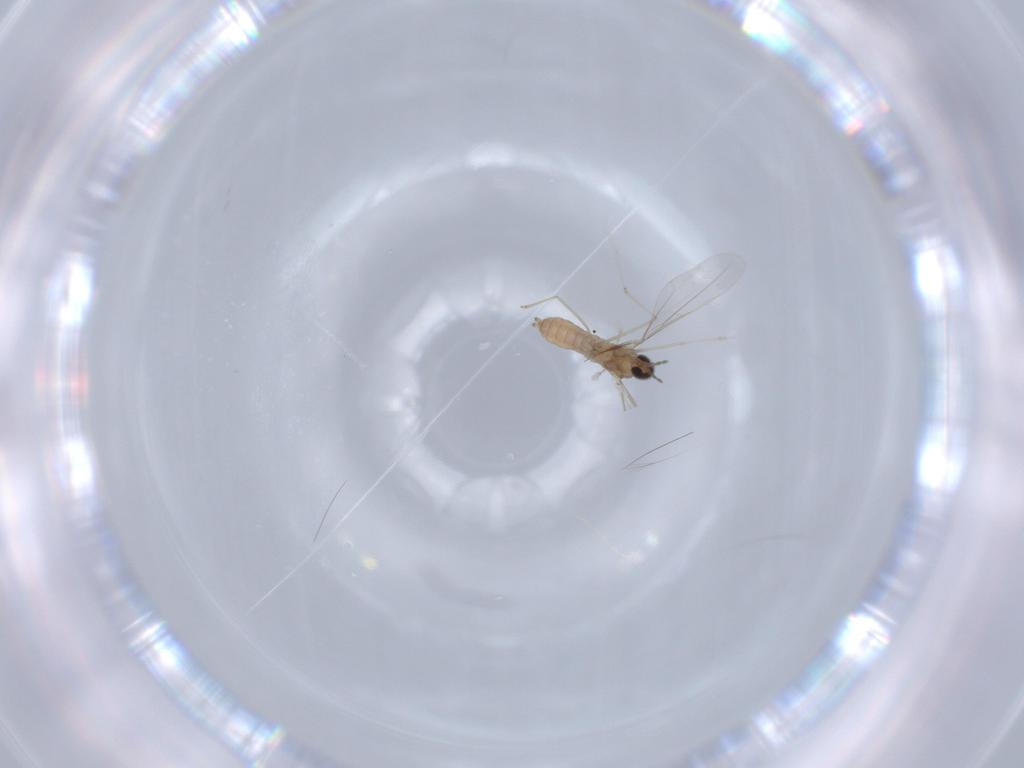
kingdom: Animalia
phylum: Arthropoda
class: Insecta
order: Diptera
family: Cecidomyiidae
